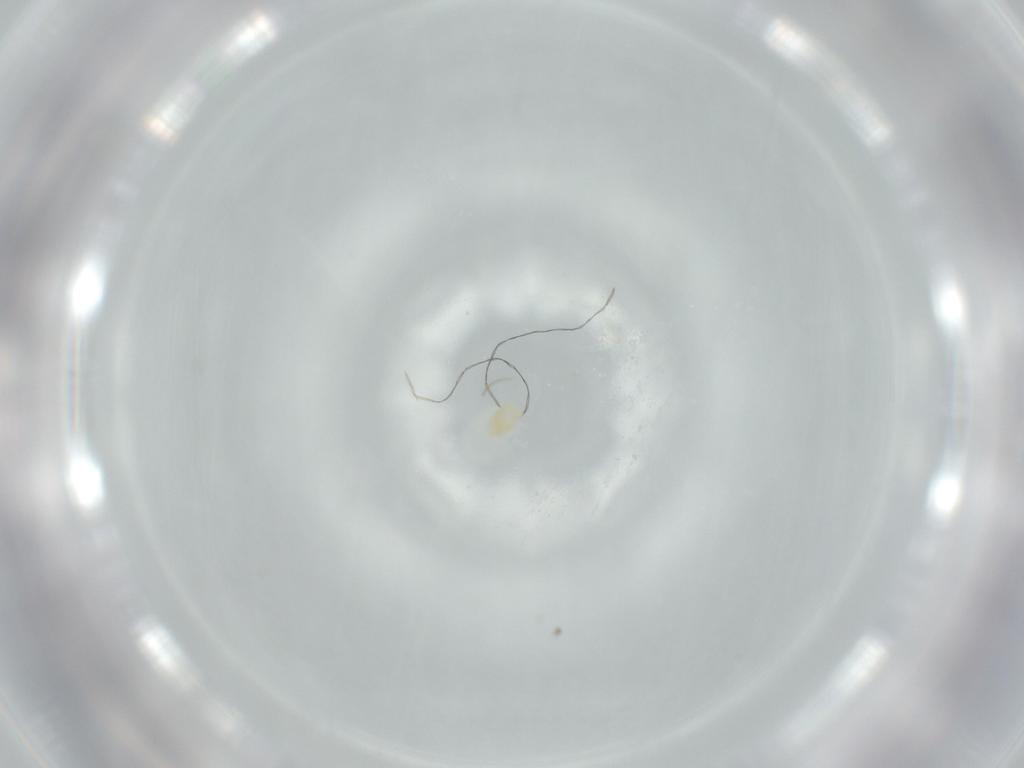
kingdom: Animalia
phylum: Arthropoda
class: Arachnida
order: Trombidiformes
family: Tetranychidae
